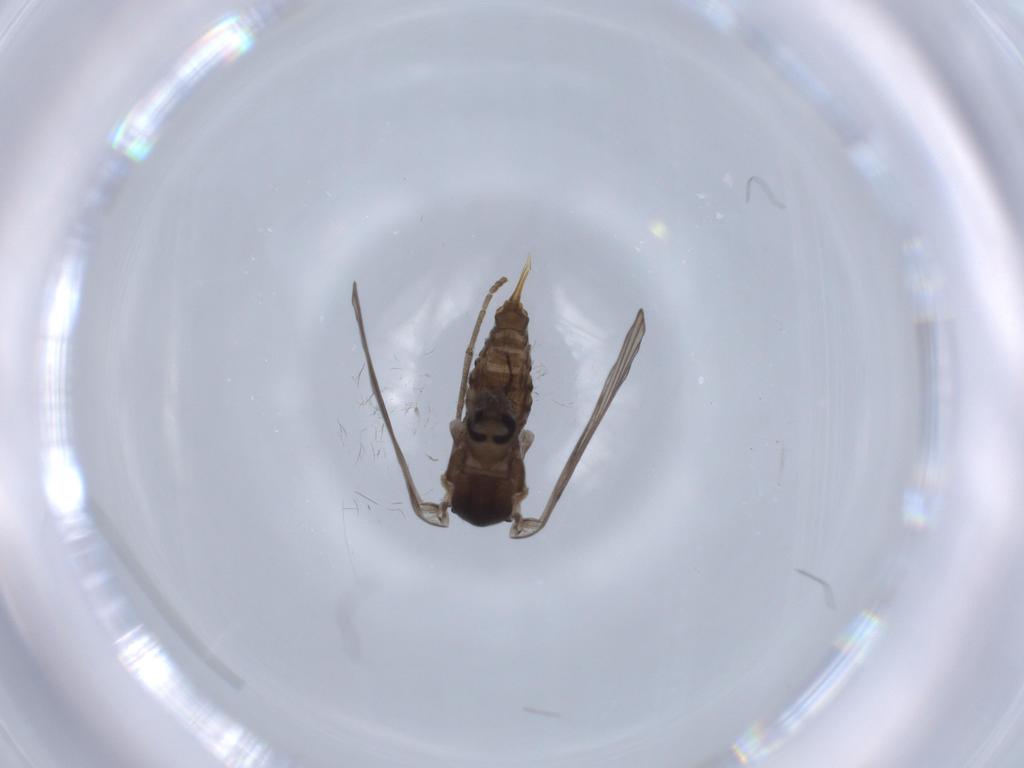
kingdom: Animalia
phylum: Arthropoda
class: Insecta
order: Diptera
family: Psychodidae
